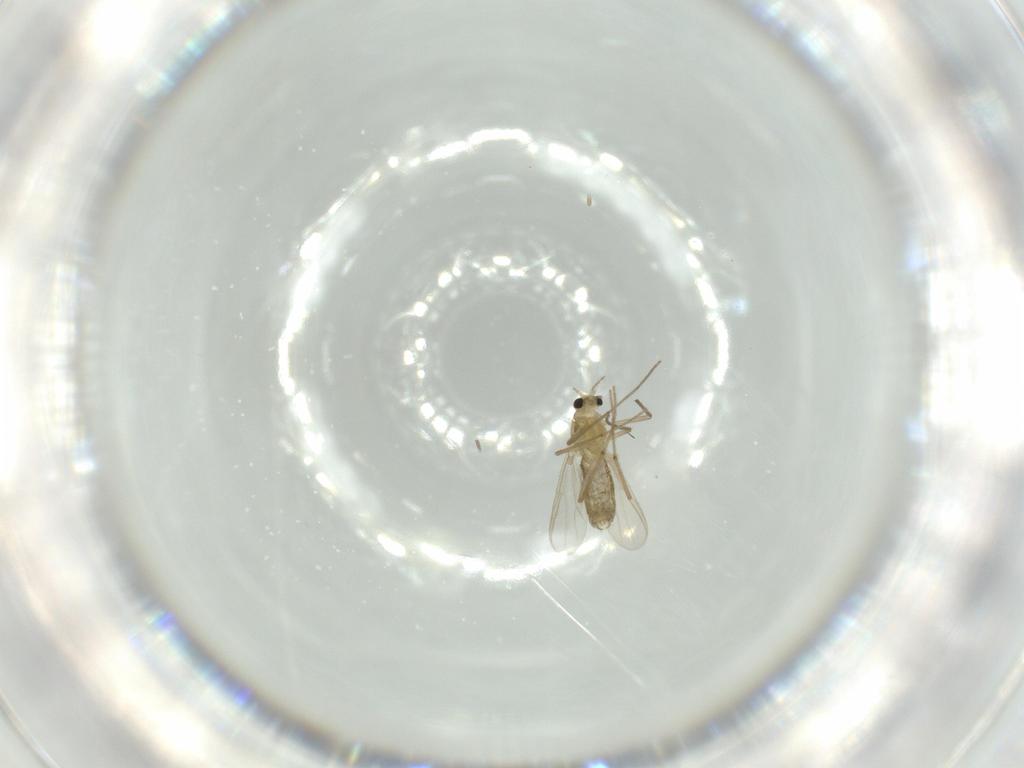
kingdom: Animalia
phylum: Arthropoda
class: Insecta
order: Diptera
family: Chironomidae
